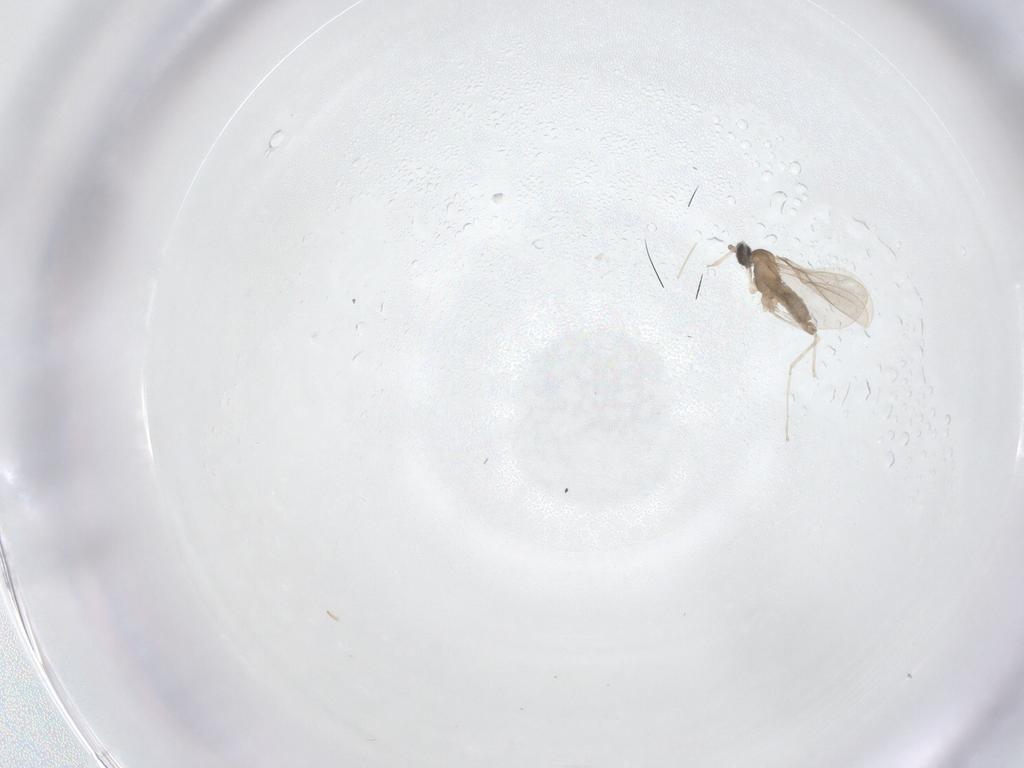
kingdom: Animalia
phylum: Arthropoda
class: Insecta
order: Diptera
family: Cecidomyiidae
